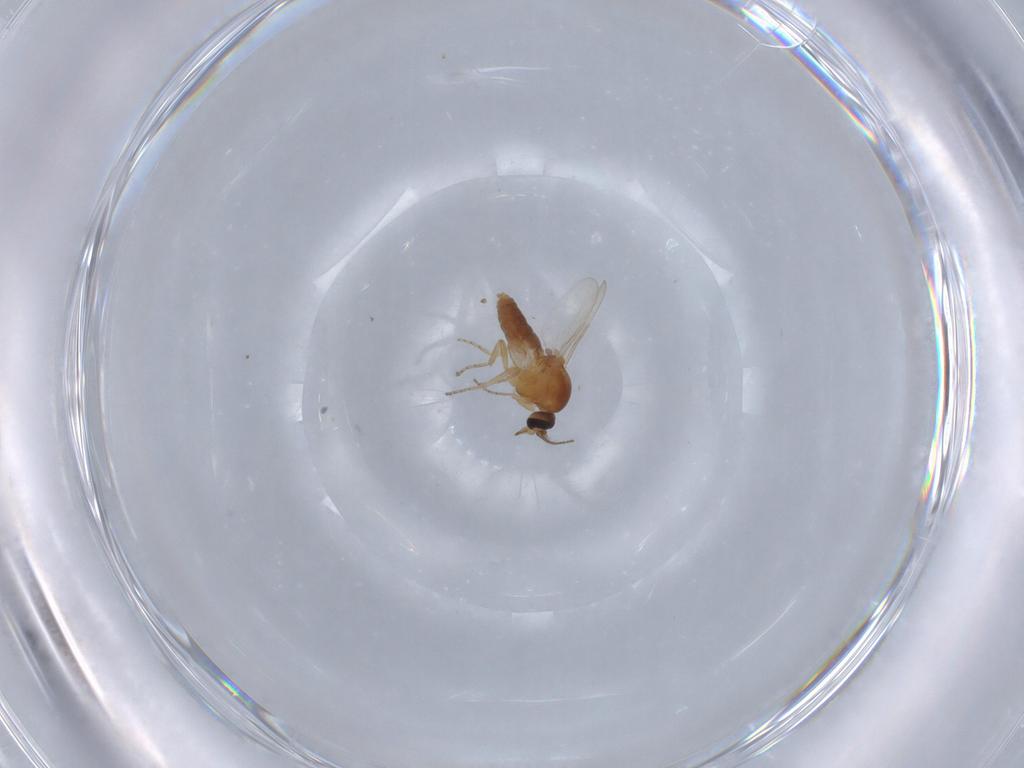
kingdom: Animalia
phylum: Arthropoda
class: Insecta
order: Diptera
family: Ceratopogonidae
